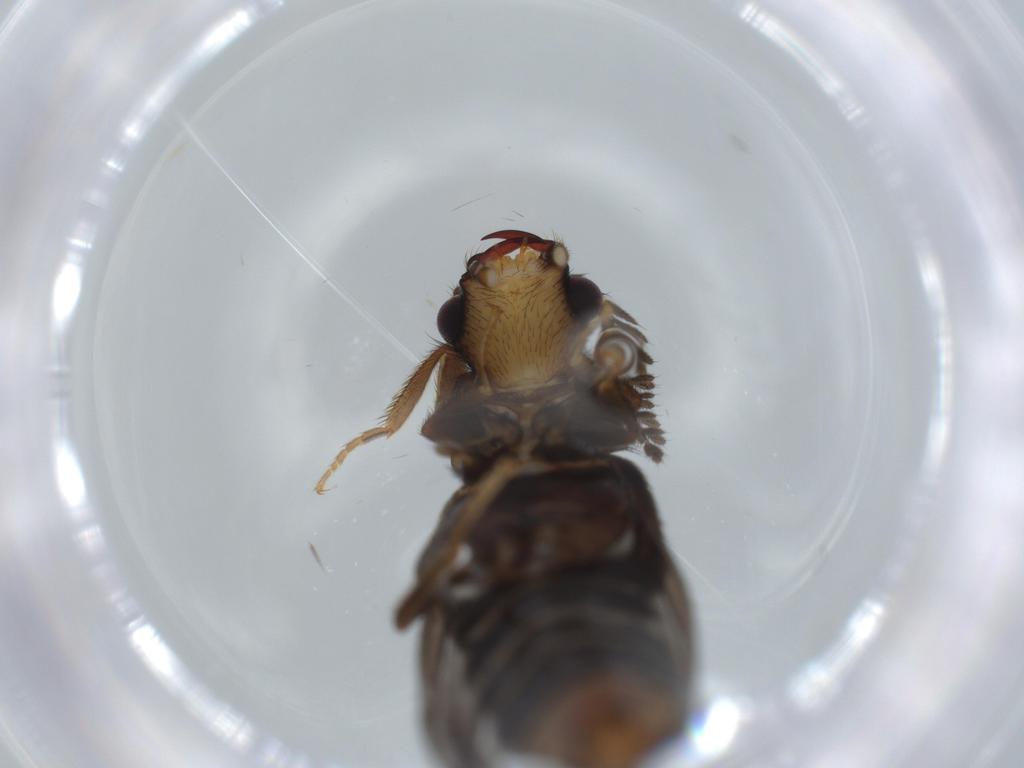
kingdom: Animalia
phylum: Arthropoda
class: Insecta
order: Coleoptera
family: Phengodidae
